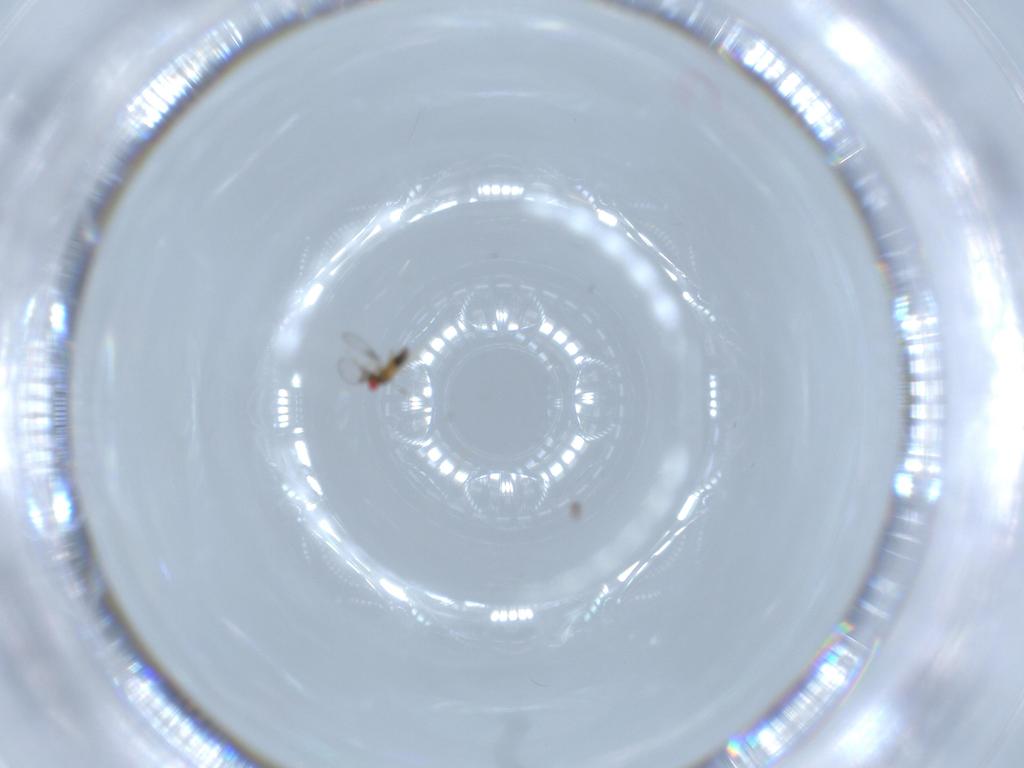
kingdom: Animalia
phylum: Arthropoda
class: Insecta
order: Hymenoptera
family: Trichogrammatidae
